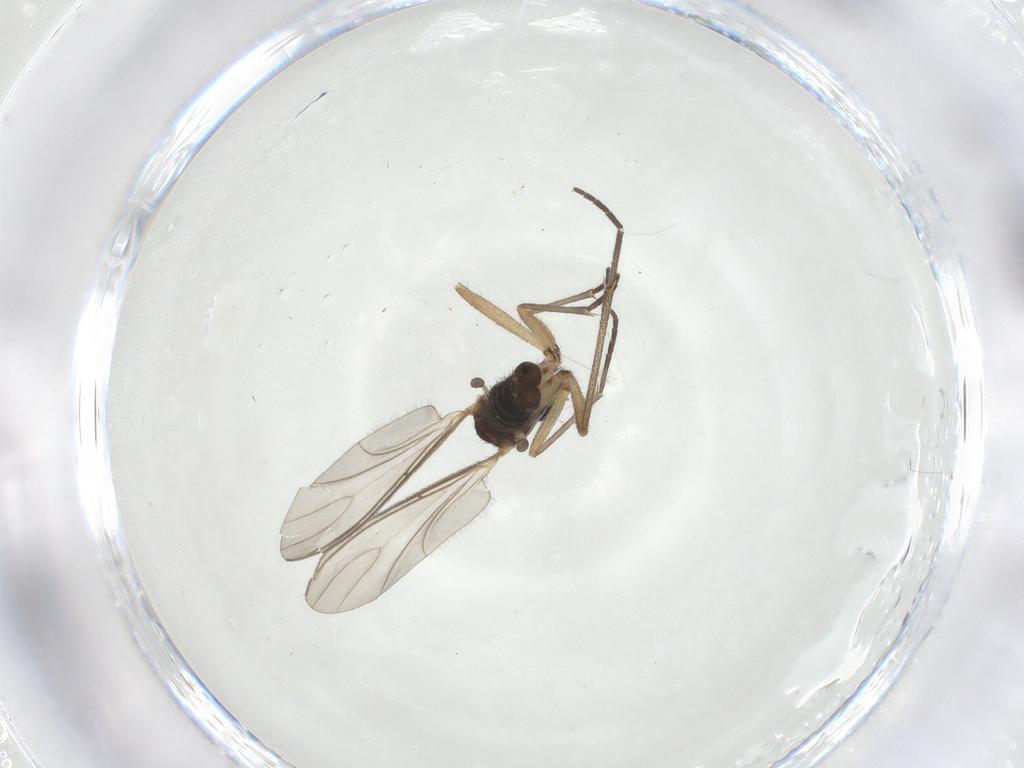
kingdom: Animalia
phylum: Arthropoda
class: Insecta
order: Diptera
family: Sciaridae
